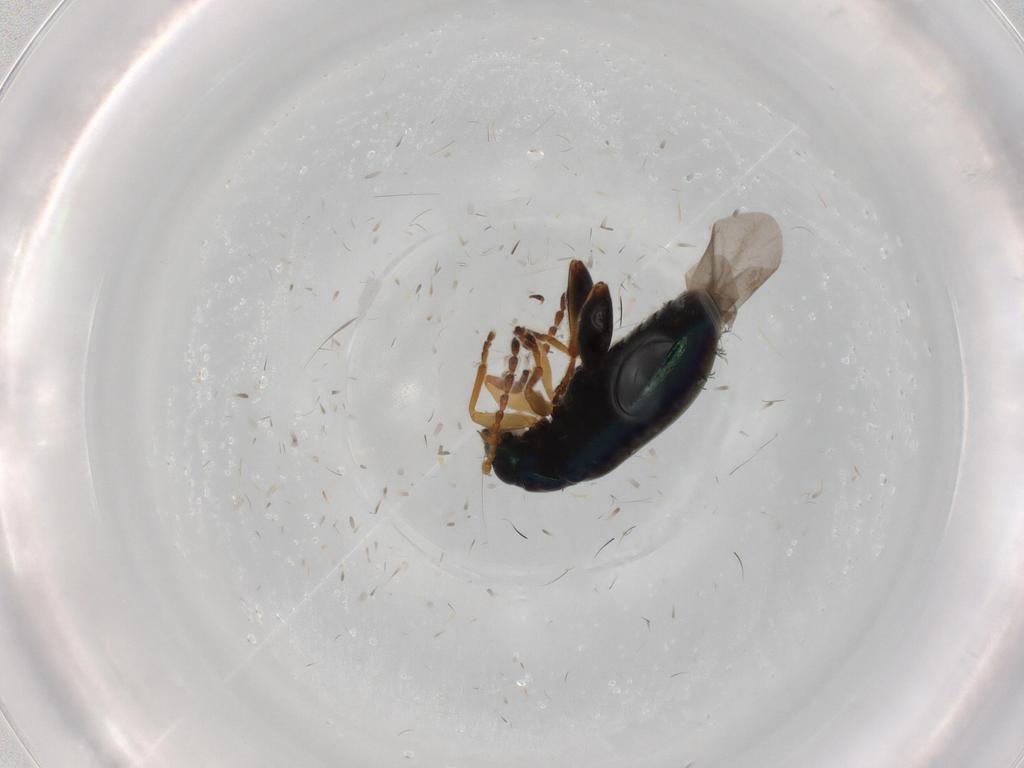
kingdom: Animalia
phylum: Arthropoda
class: Insecta
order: Coleoptera
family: Chrysomelidae
